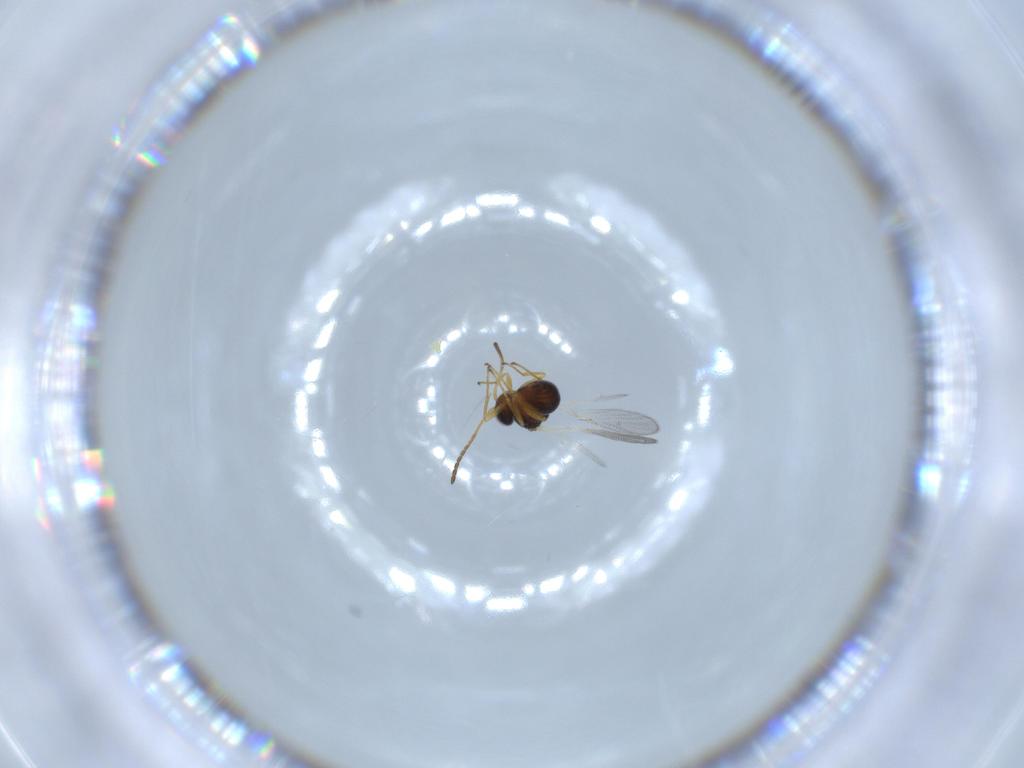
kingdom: Animalia
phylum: Arthropoda
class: Insecta
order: Hymenoptera
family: Figitidae
